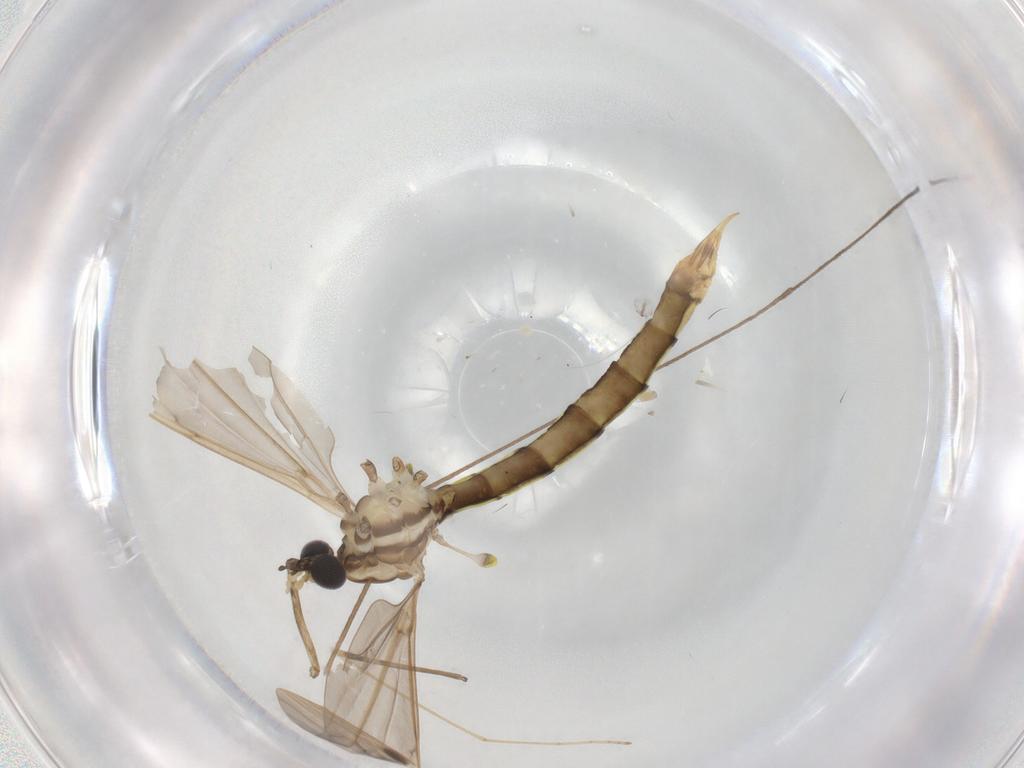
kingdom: Animalia
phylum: Arthropoda
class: Insecta
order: Diptera
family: Limoniidae
